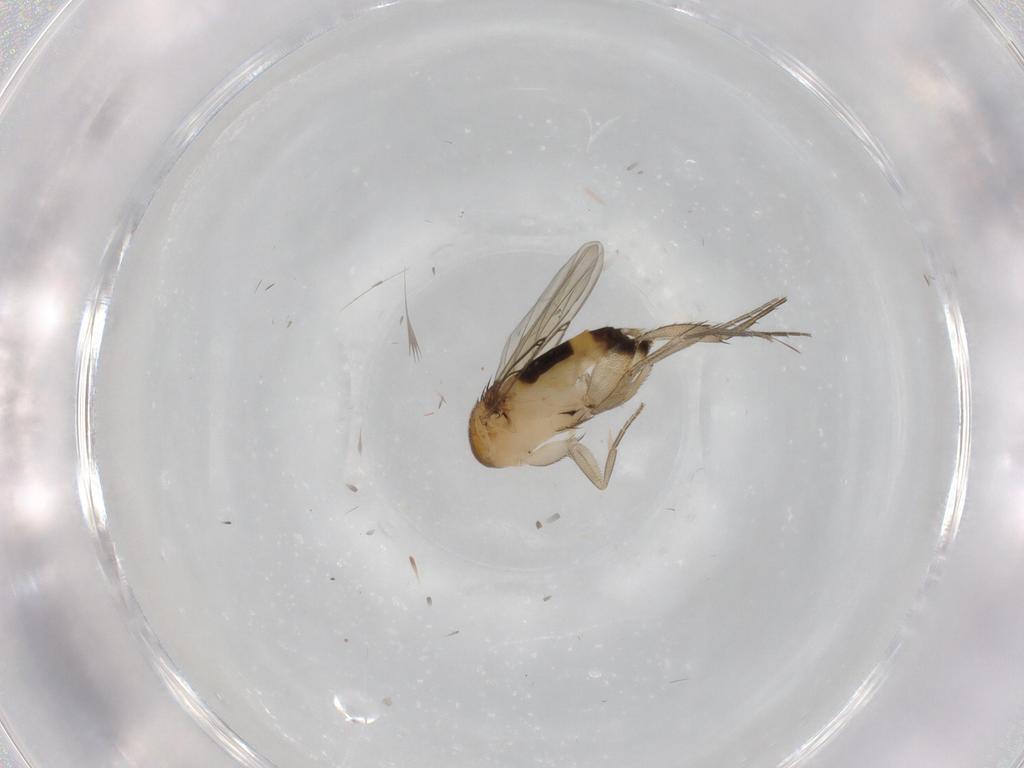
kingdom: Animalia
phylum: Arthropoda
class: Insecta
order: Diptera
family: Phoridae
